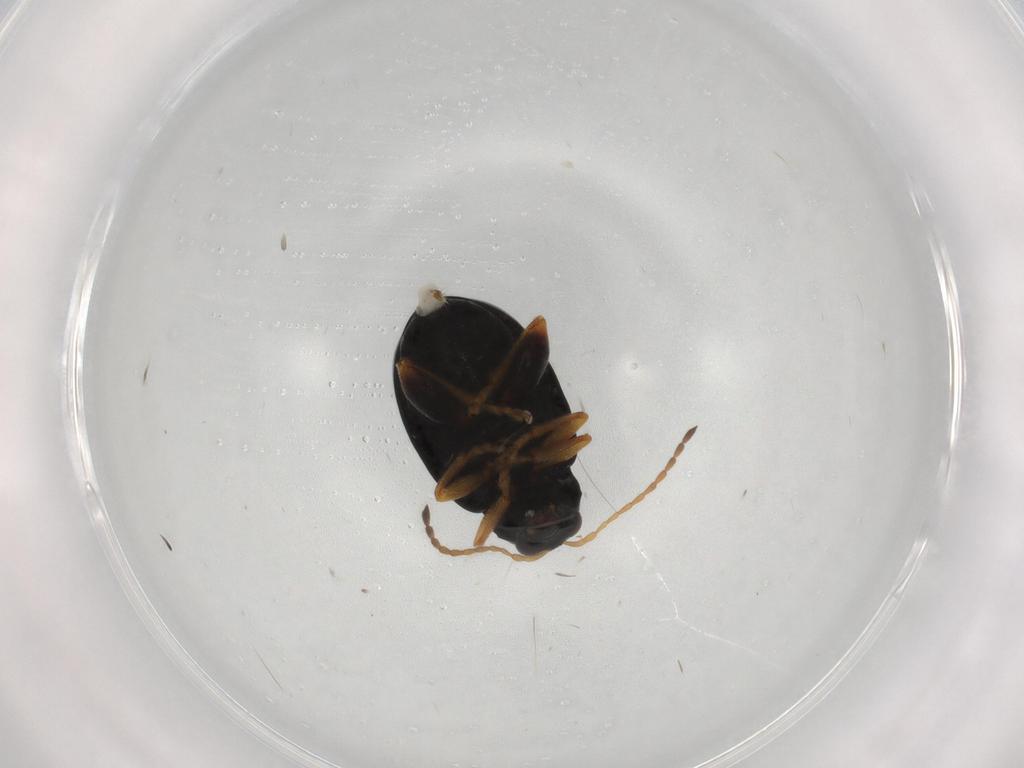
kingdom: Animalia
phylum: Arthropoda
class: Insecta
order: Coleoptera
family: Chrysomelidae
